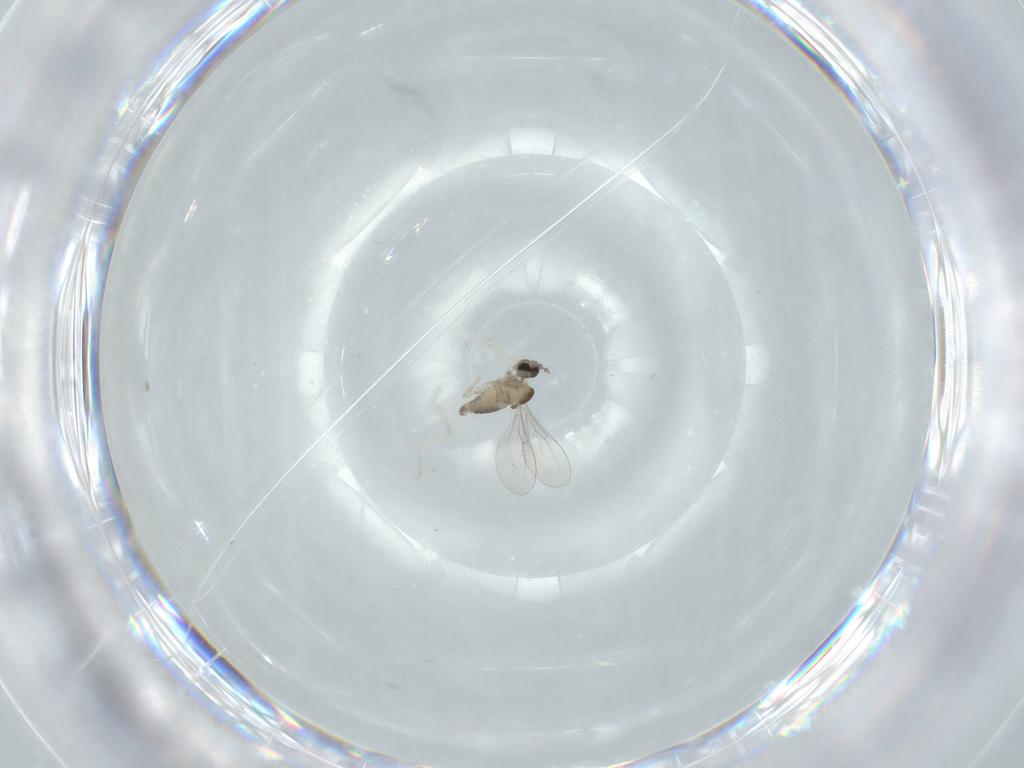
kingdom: Animalia
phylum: Arthropoda
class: Insecta
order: Diptera
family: Cecidomyiidae
